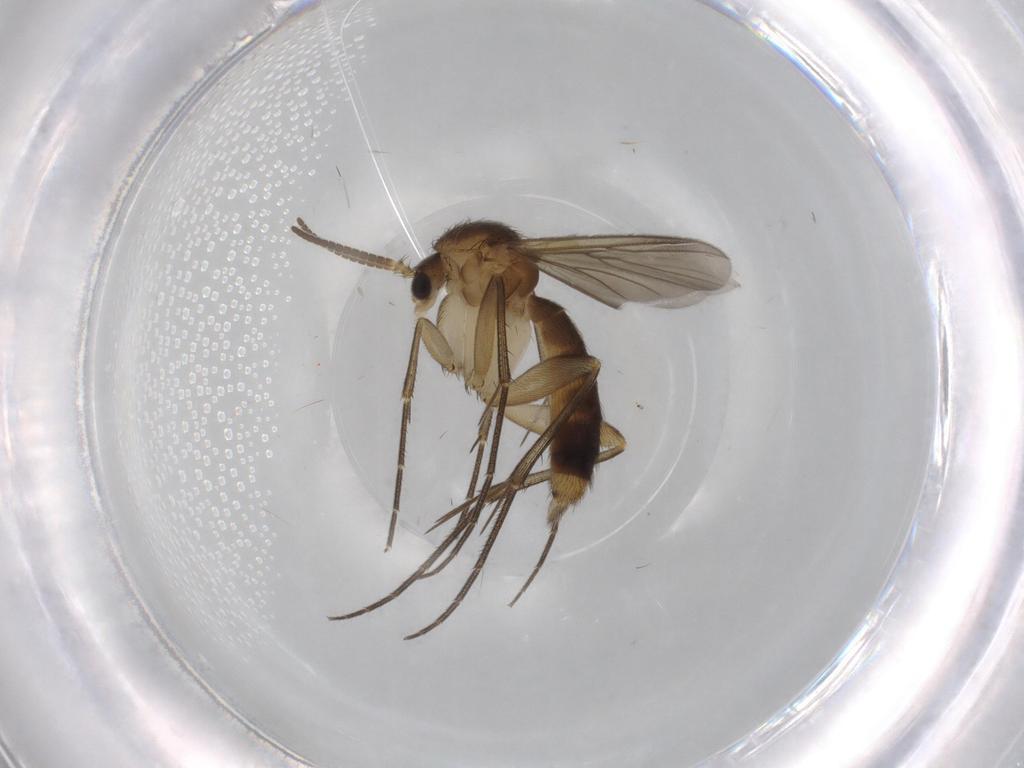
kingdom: Animalia
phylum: Arthropoda
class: Insecta
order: Diptera
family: Mycetophilidae
